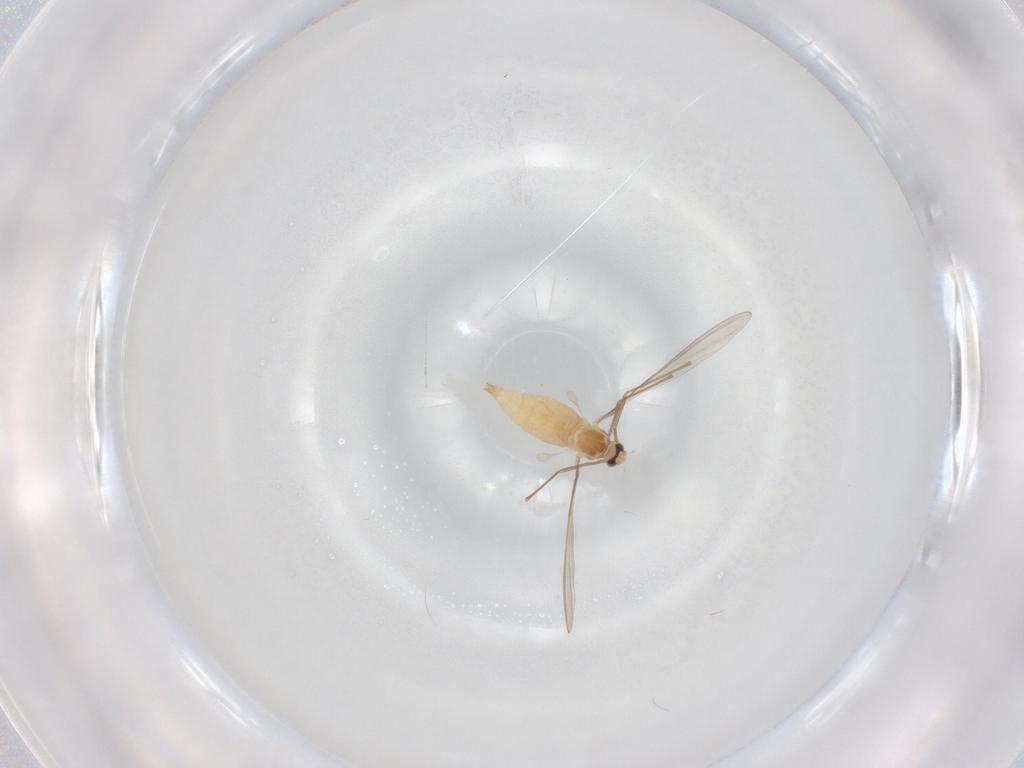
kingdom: Animalia
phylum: Arthropoda
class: Insecta
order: Diptera
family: Cecidomyiidae
